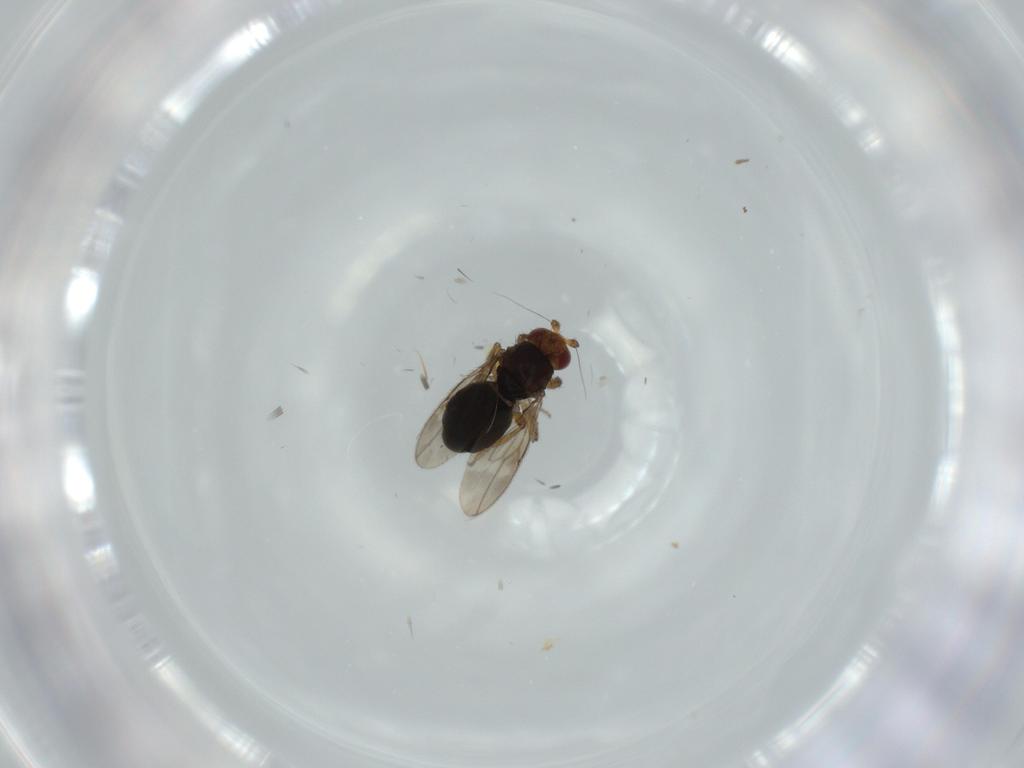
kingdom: Animalia
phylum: Arthropoda
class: Insecta
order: Diptera
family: Sphaeroceridae
